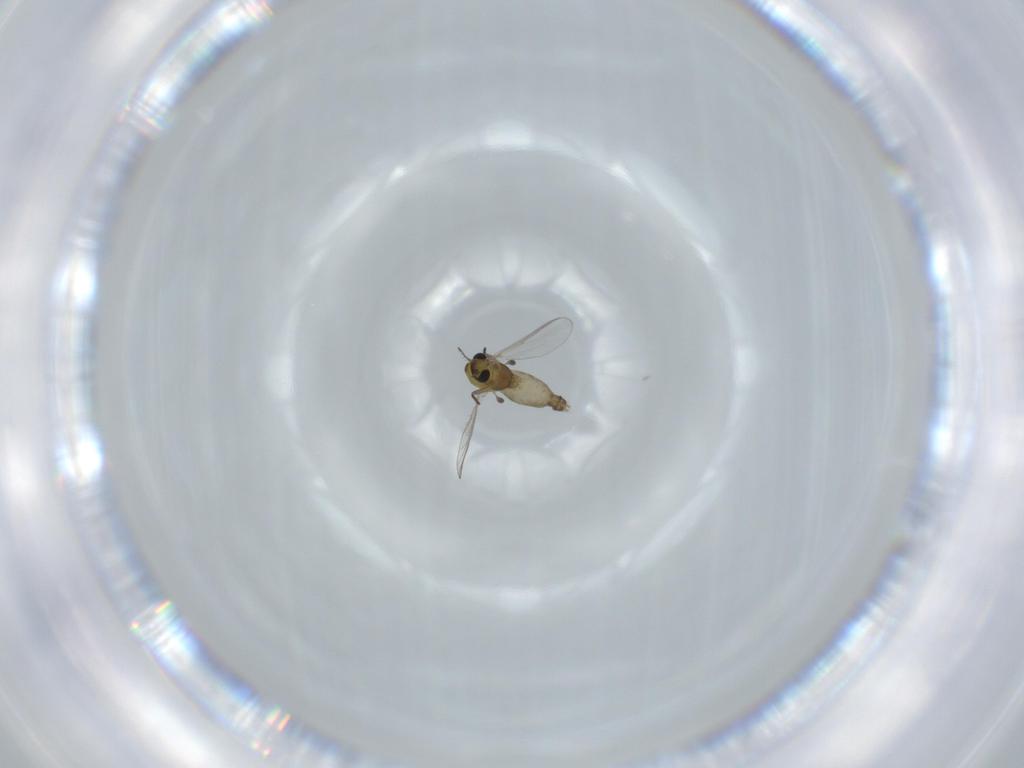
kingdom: Animalia
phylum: Arthropoda
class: Insecta
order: Diptera
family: Chironomidae
